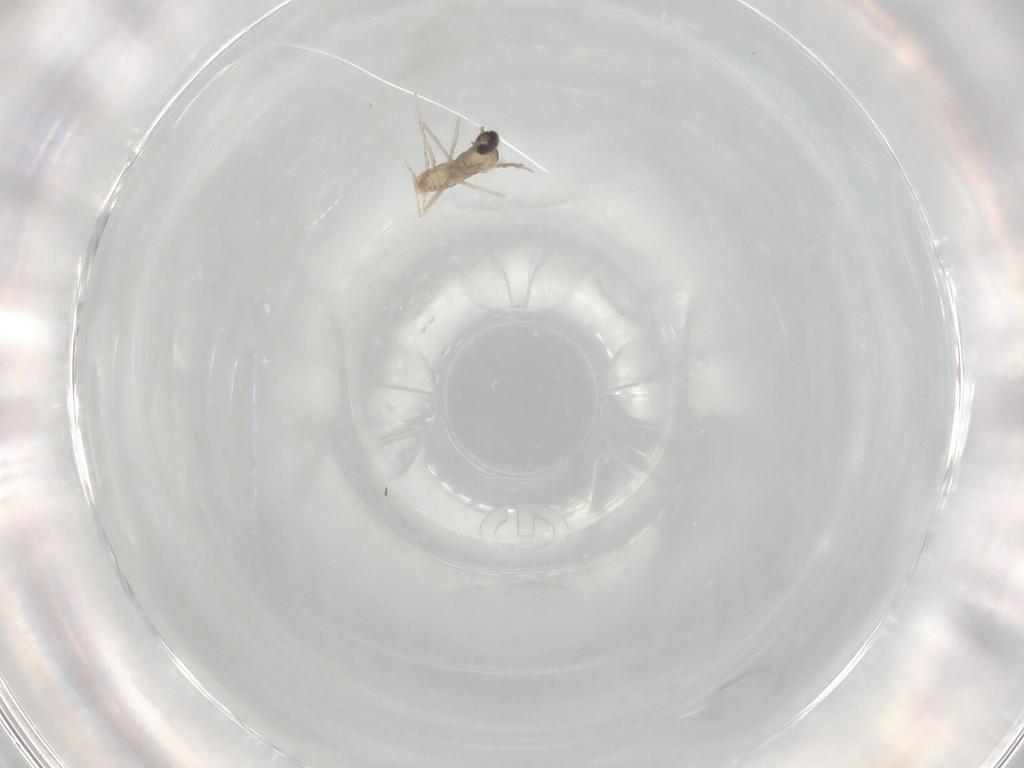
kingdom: Animalia
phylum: Arthropoda
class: Insecta
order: Diptera
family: Cecidomyiidae
